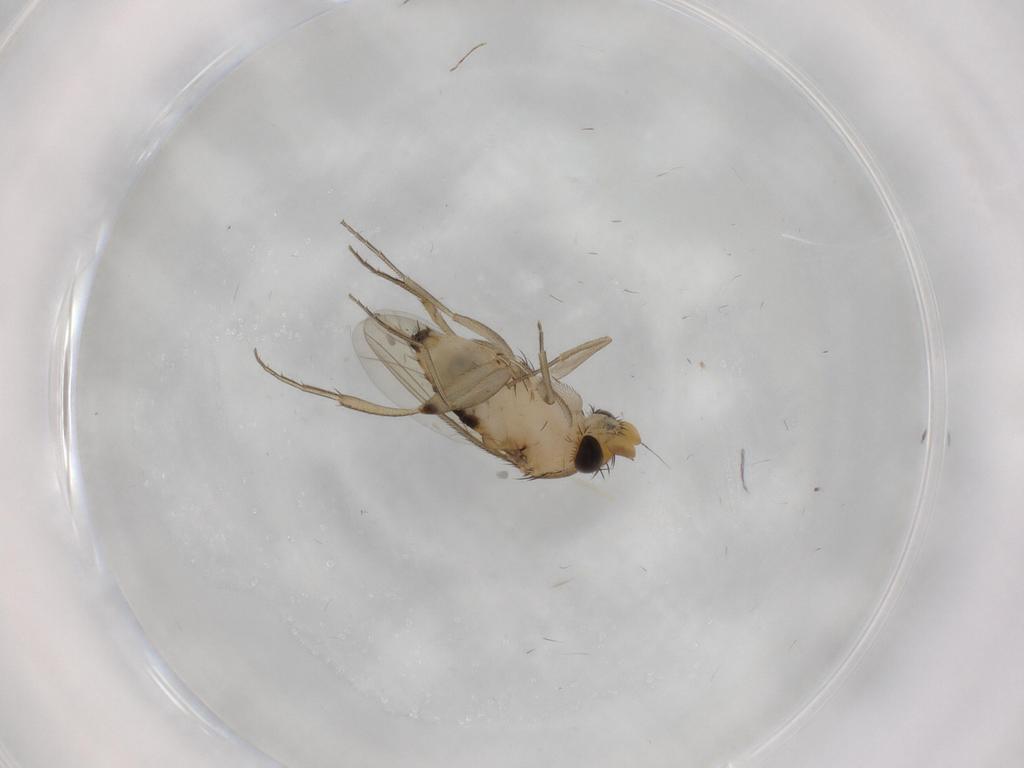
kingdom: Animalia
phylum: Arthropoda
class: Insecta
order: Diptera
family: Phoridae
